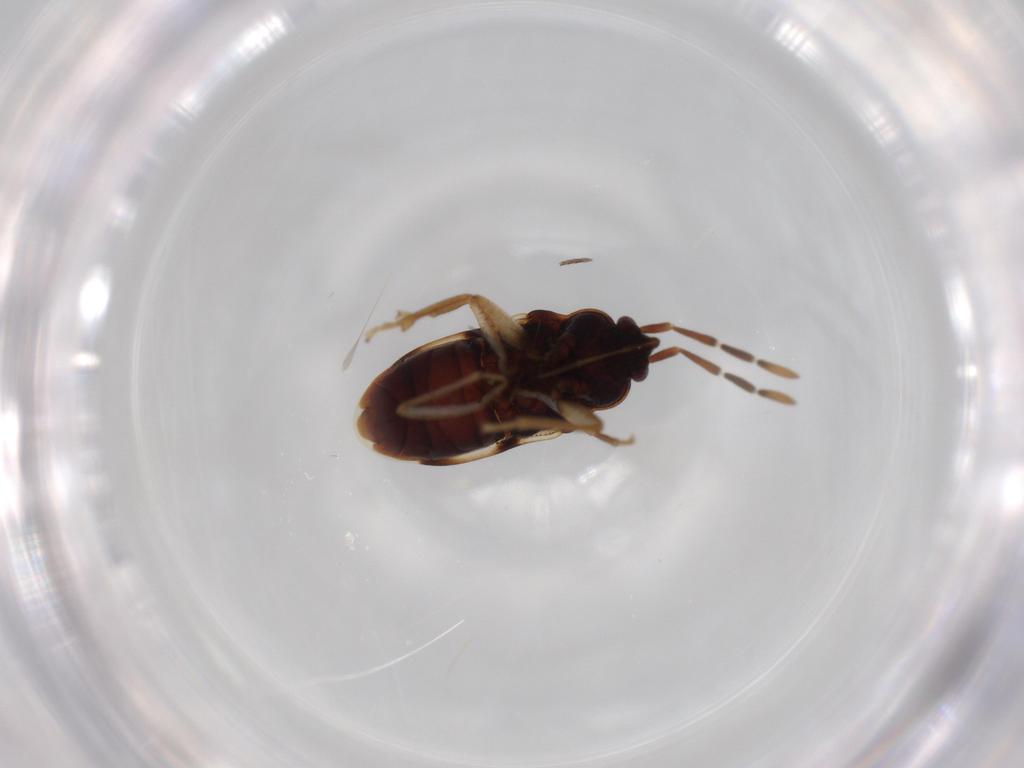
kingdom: Animalia
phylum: Arthropoda
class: Insecta
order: Hemiptera
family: Rhyparochromidae
